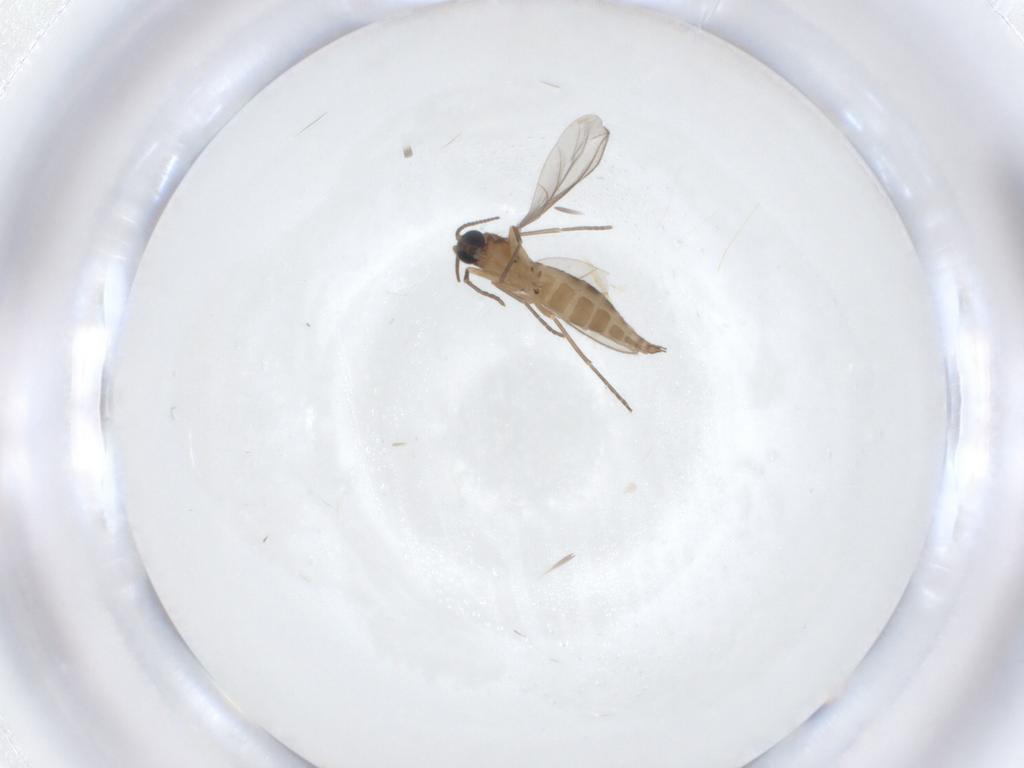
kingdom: Animalia
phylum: Arthropoda
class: Insecta
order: Diptera
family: Sciaridae
